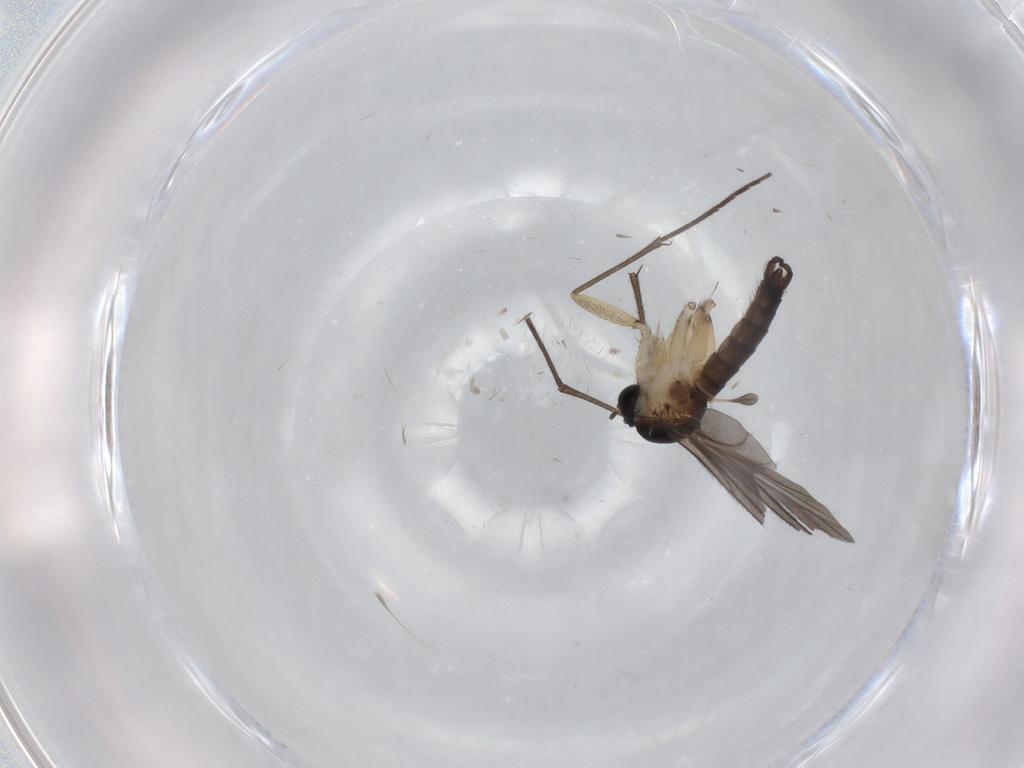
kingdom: Animalia
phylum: Arthropoda
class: Insecta
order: Diptera
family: Sciaridae
